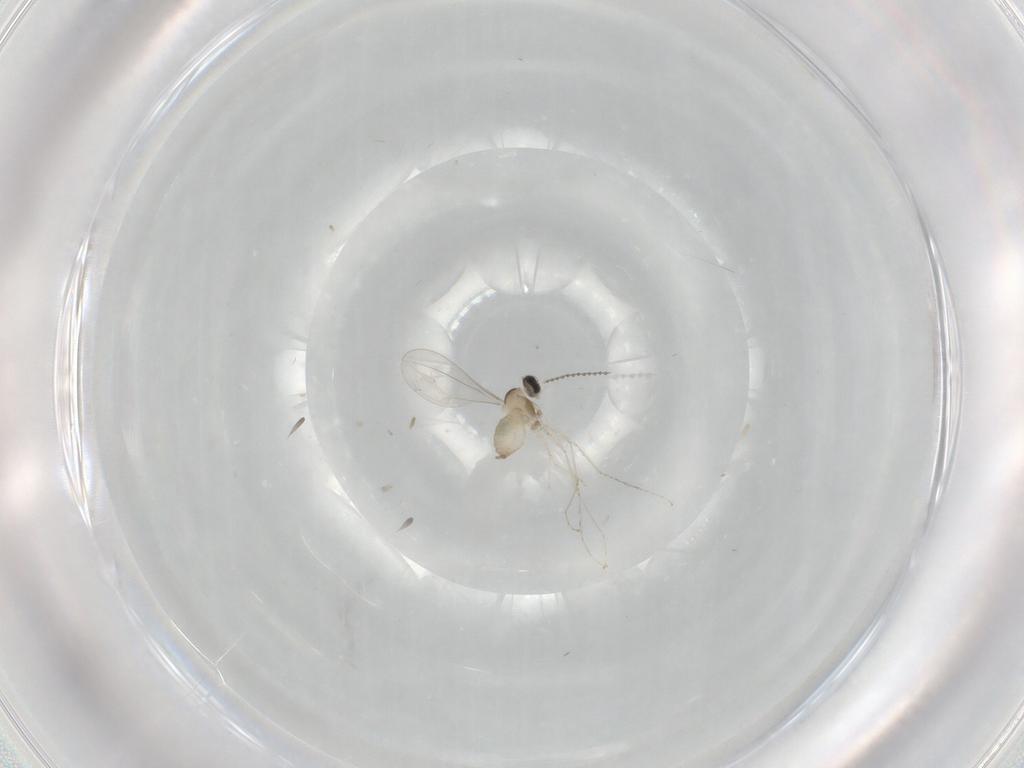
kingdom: Animalia
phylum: Arthropoda
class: Insecta
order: Diptera
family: Cecidomyiidae
